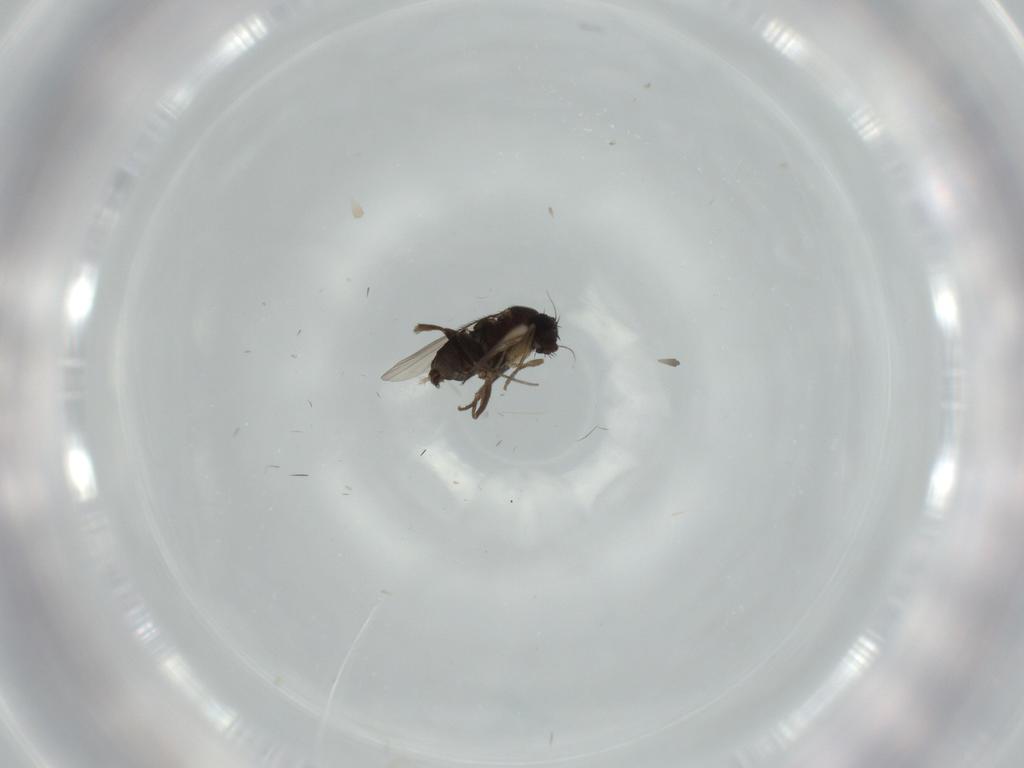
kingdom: Animalia
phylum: Arthropoda
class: Insecta
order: Diptera
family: Phoridae
